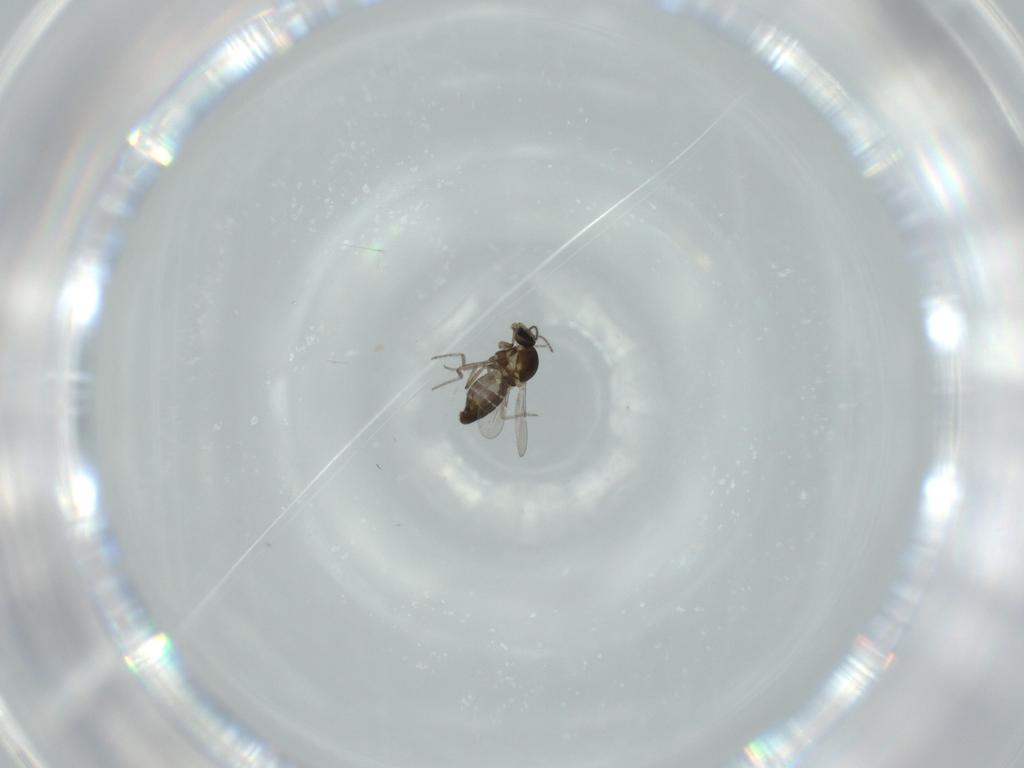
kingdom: Animalia
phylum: Arthropoda
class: Insecta
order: Diptera
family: Ceratopogonidae
